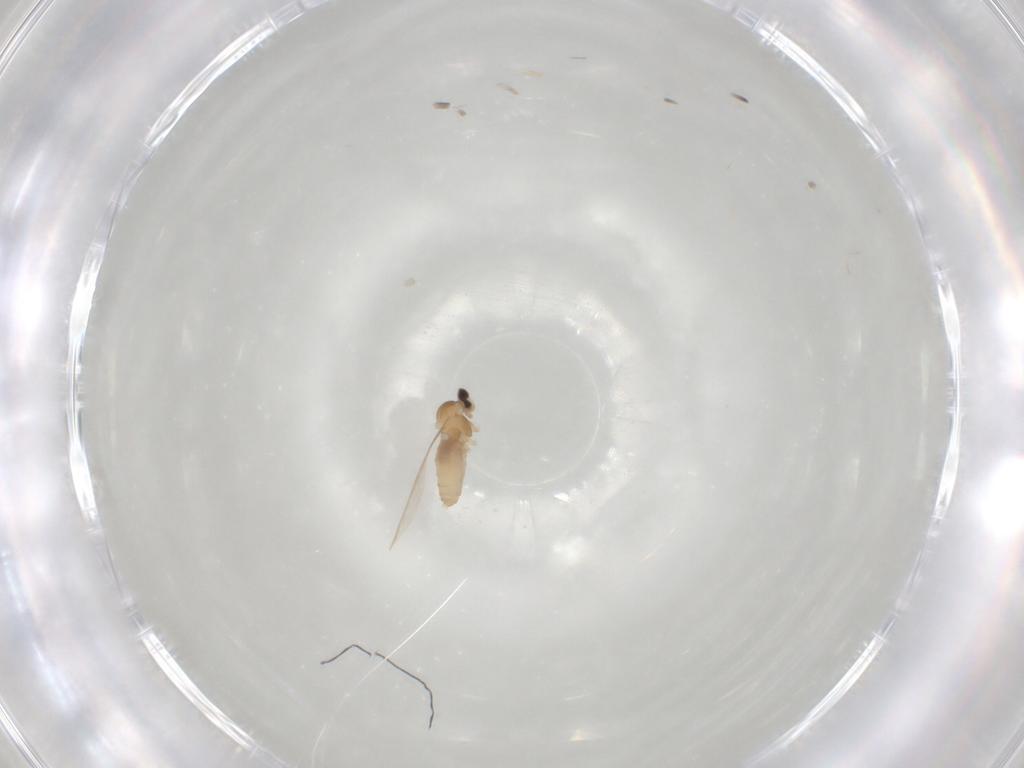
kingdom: Animalia
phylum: Arthropoda
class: Insecta
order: Diptera
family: Cecidomyiidae
